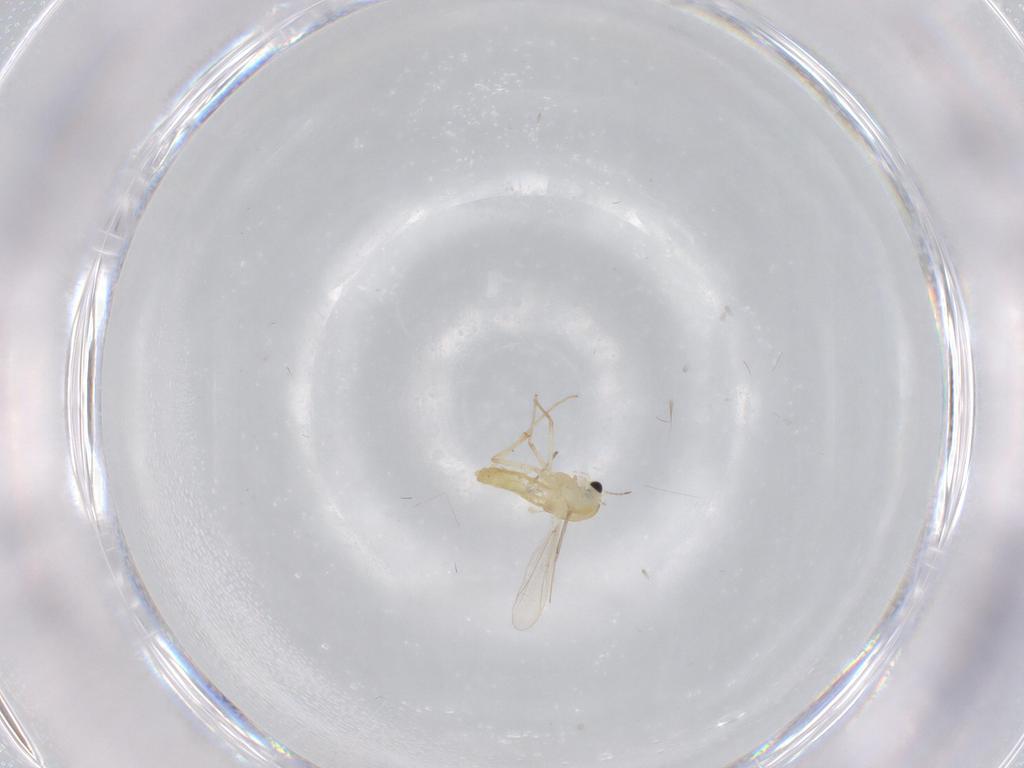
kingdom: Animalia
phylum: Arthropoda
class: Insecta
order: Diptera
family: Chironomidae
